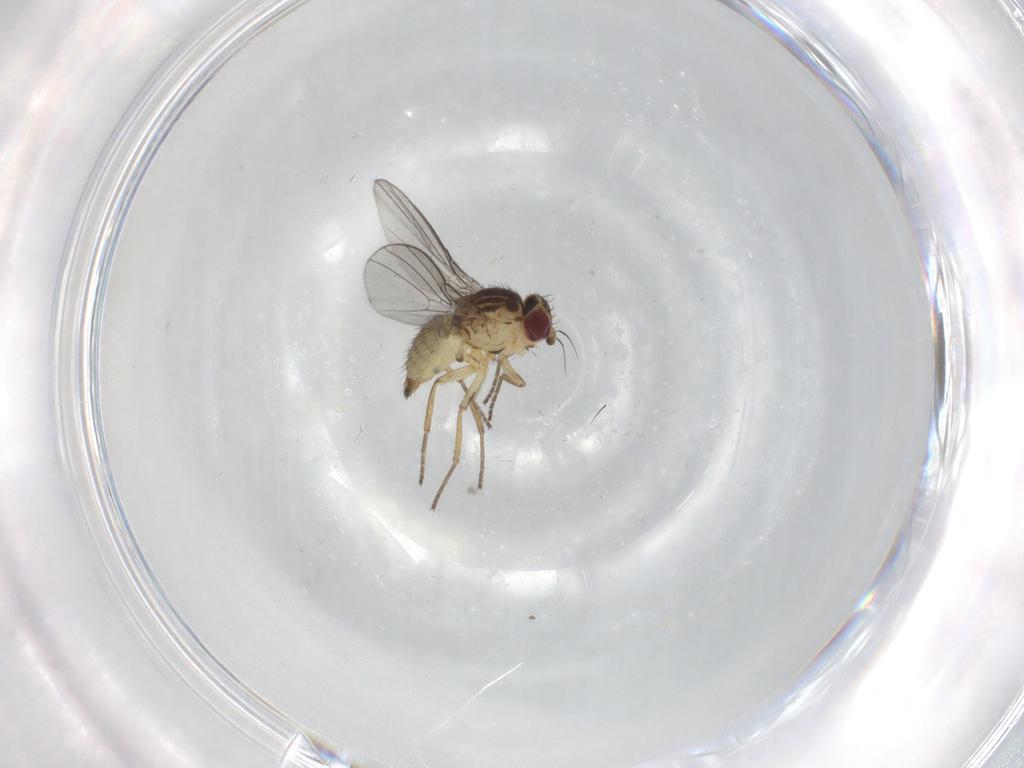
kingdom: Animalia
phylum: Arthropoda
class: Insecta
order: Diptera
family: Agromyzidae
